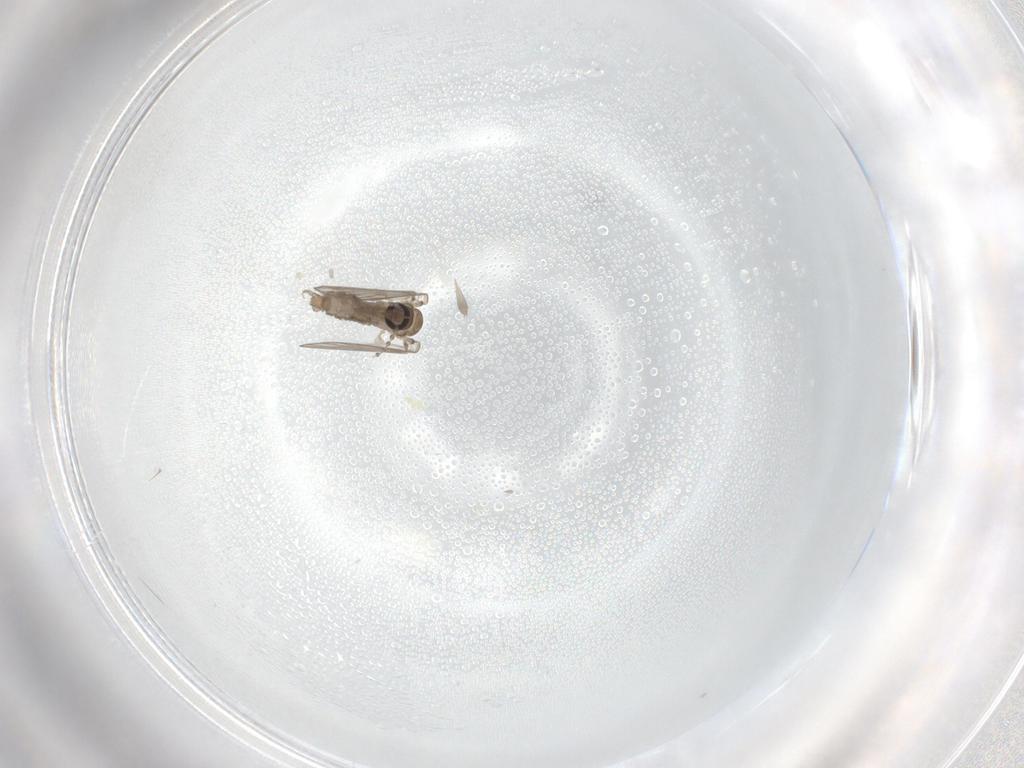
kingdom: Animalia
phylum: Arthropoda
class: Insecta
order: Diptera
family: Psychodidae
